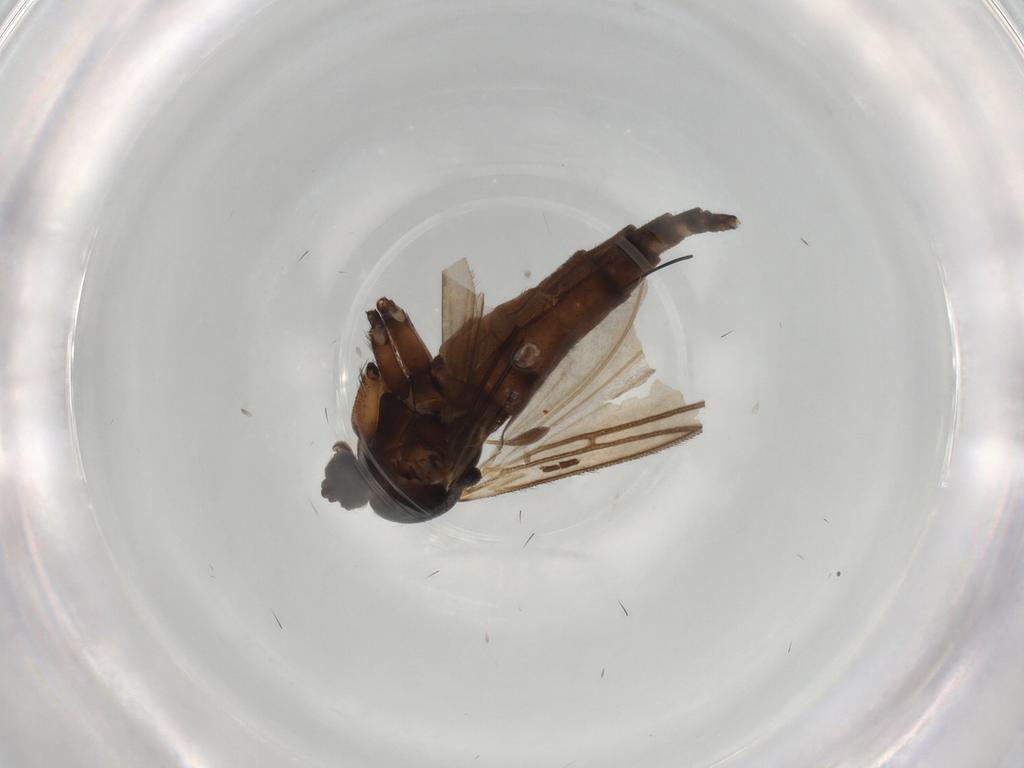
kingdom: Animalia
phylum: Arthropoda
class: Insecta
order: Diptera
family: Sciaridae
